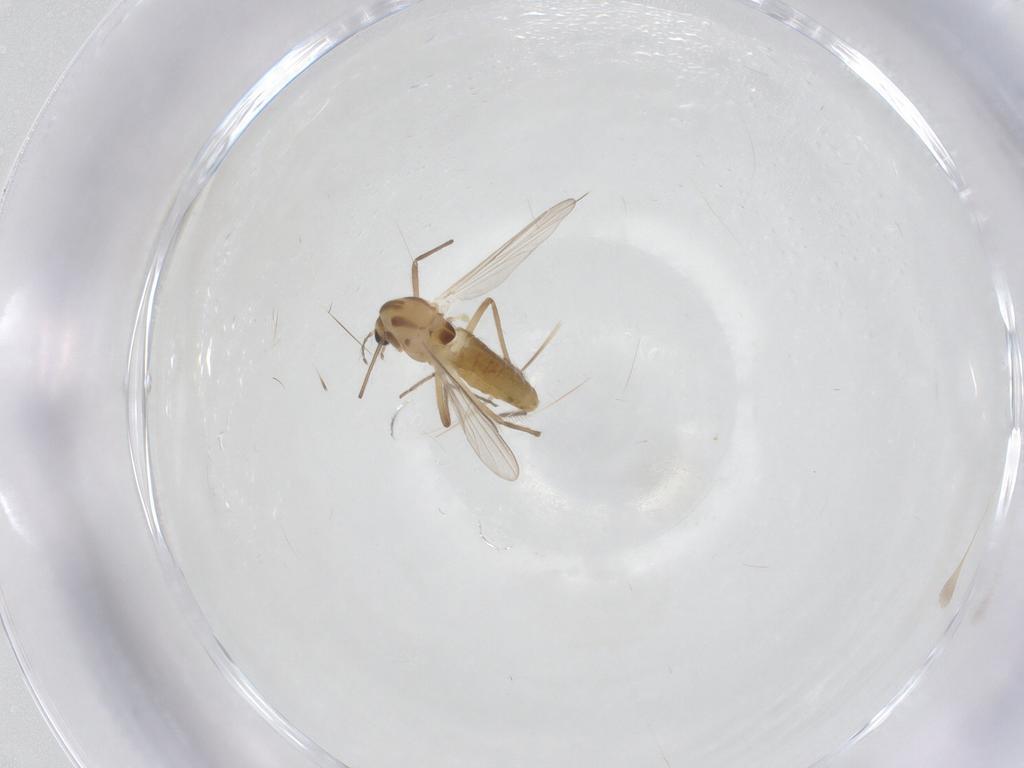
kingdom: Animalia
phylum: Arthropoda
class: Insecta
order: Diptera
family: Chironomidae
